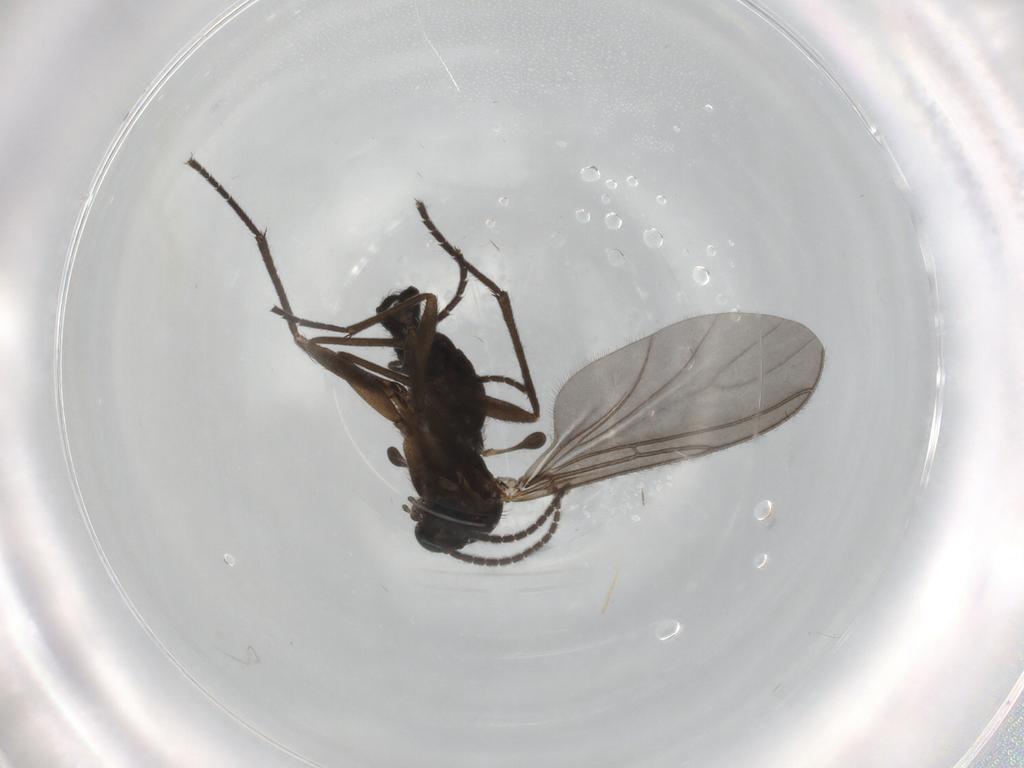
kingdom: Animalia
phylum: Arthropoda
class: Insecta
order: Diptera
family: Sciaridae
